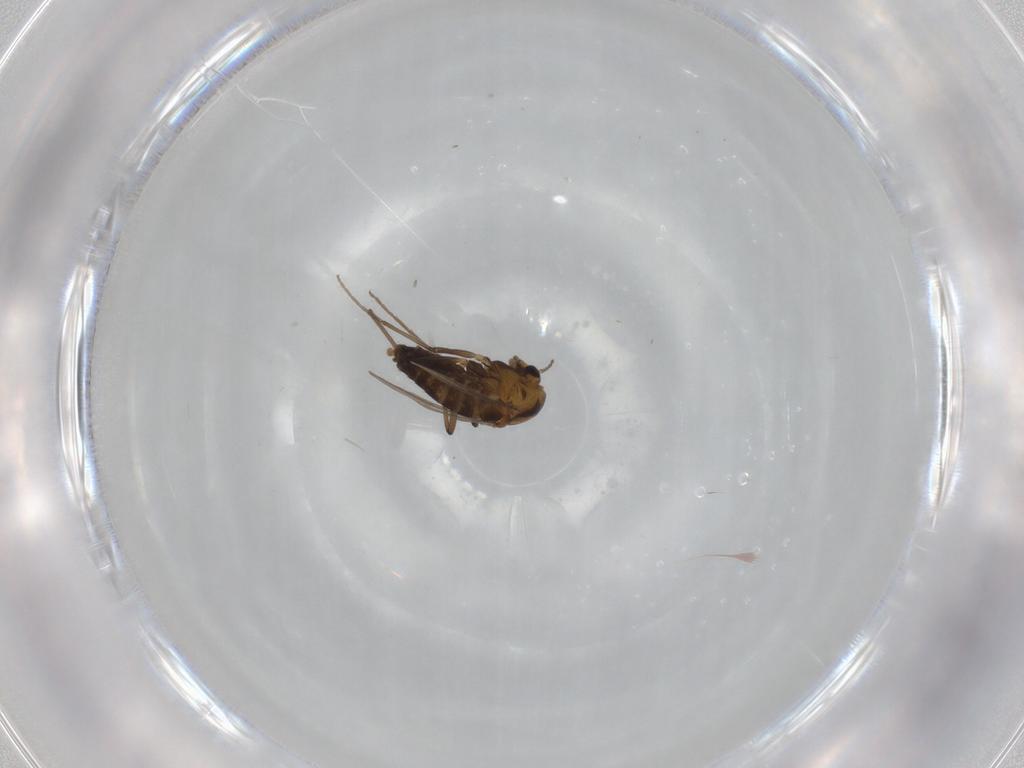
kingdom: Animalia
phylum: Arthropoda
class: Insecta
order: Diptera
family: Chironomidae
